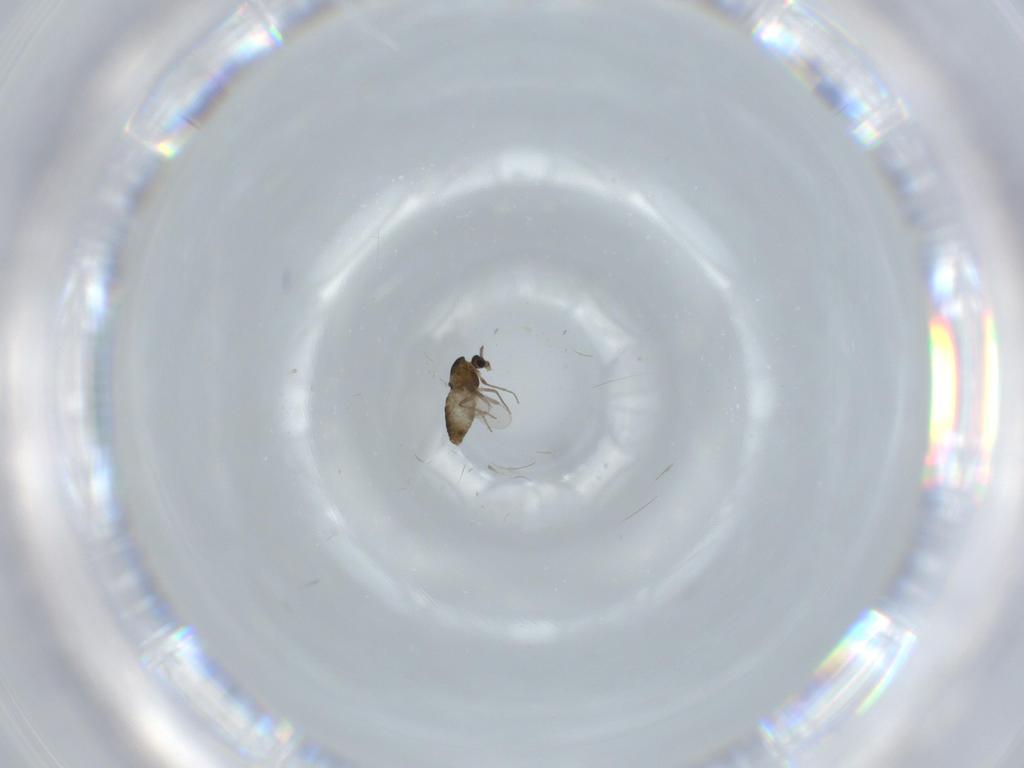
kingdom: Animalia
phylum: Arthropoda
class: Insecta
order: Diptera
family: Chironomidae
